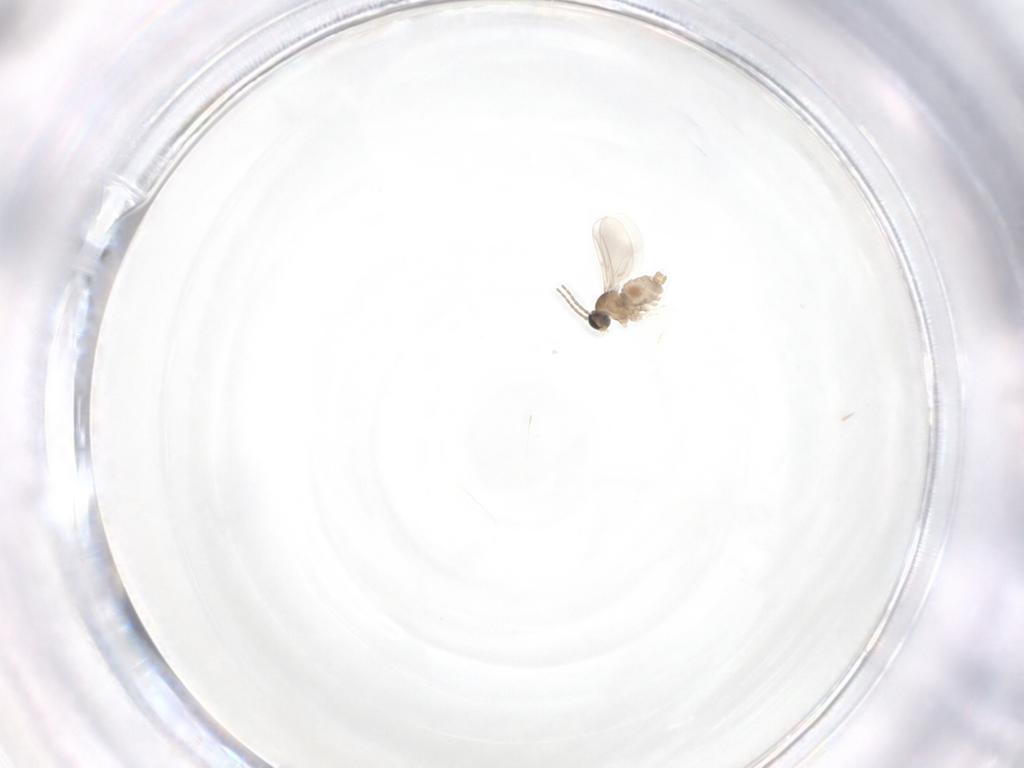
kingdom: Animalia
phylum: Arthropoda
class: Insecta
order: Diptera
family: Cecidomyiidae
